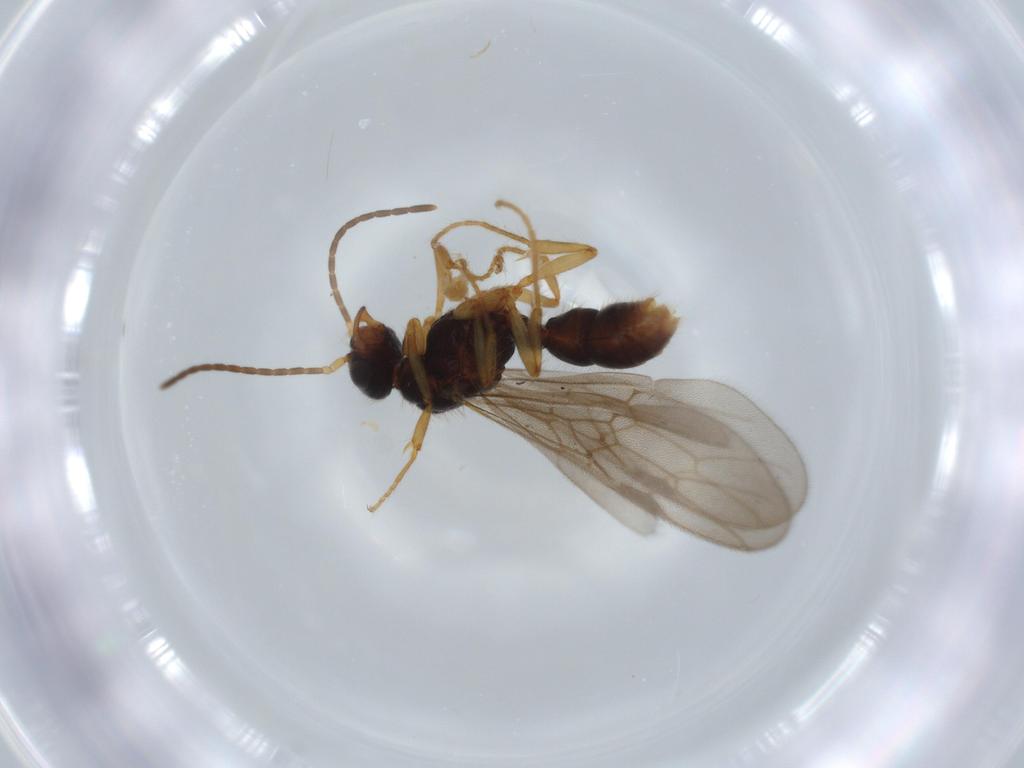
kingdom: Animalia
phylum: Arthropoda
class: Insecta
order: Hymenoptera
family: Formicidae
